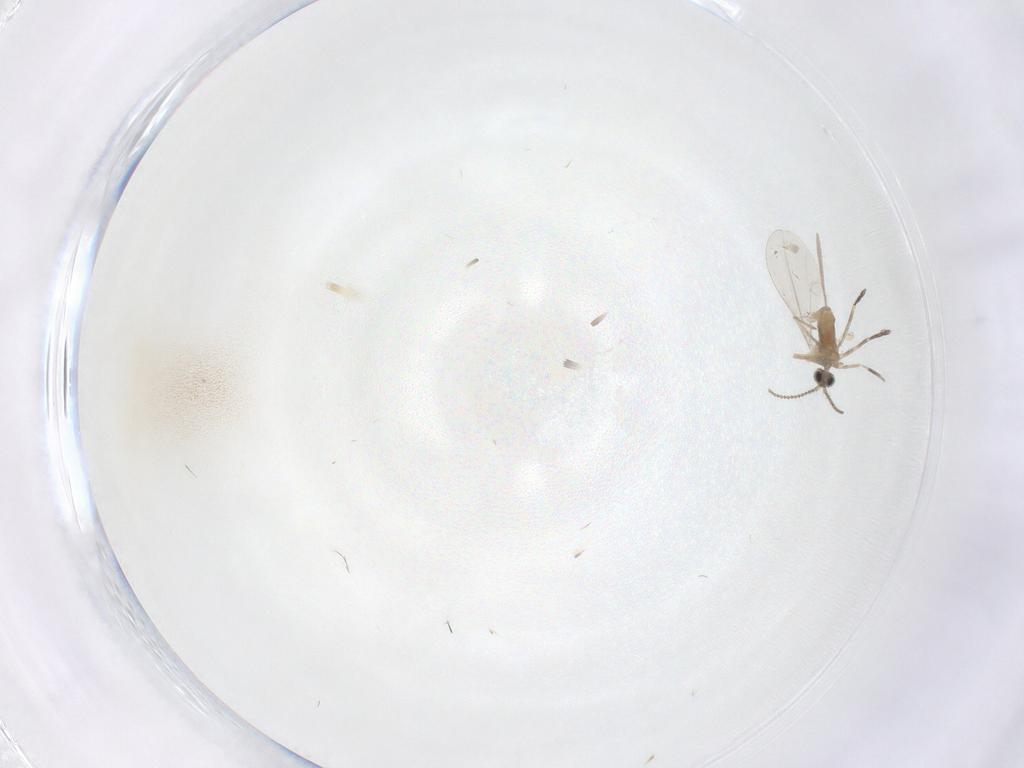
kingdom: Animalia
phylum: Arthropoda
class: Insecta
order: Diptera
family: Cecidomyiidae
